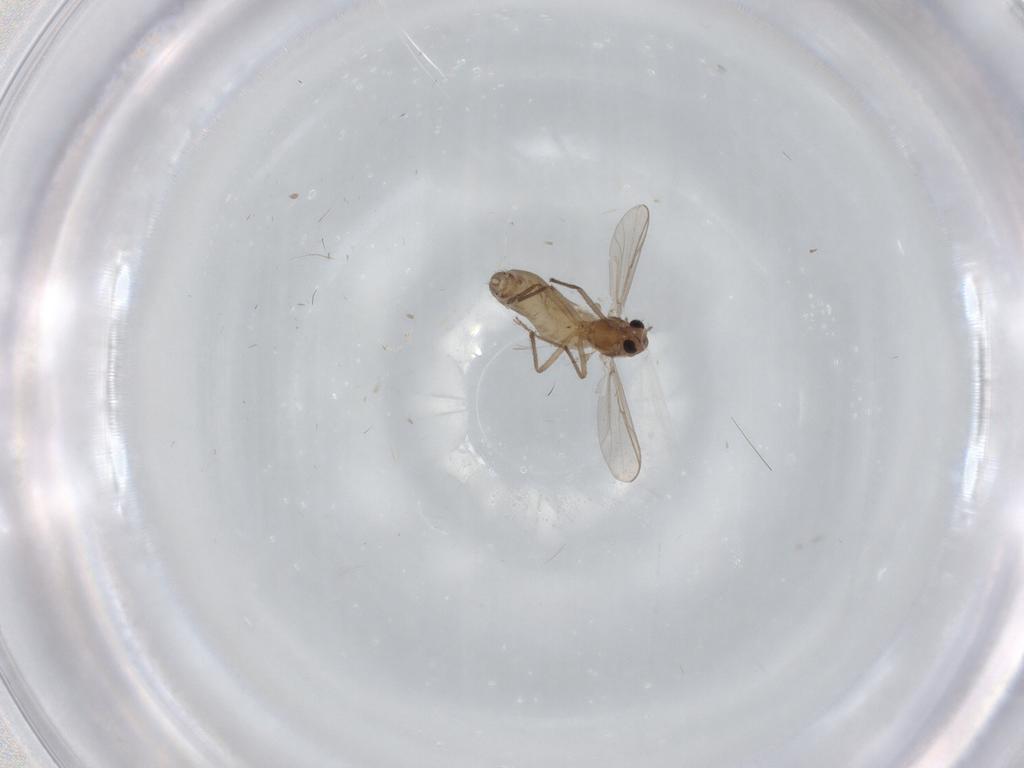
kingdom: Animalia
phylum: Arthropoda
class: Insecta
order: Diptera
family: Chironomidae
